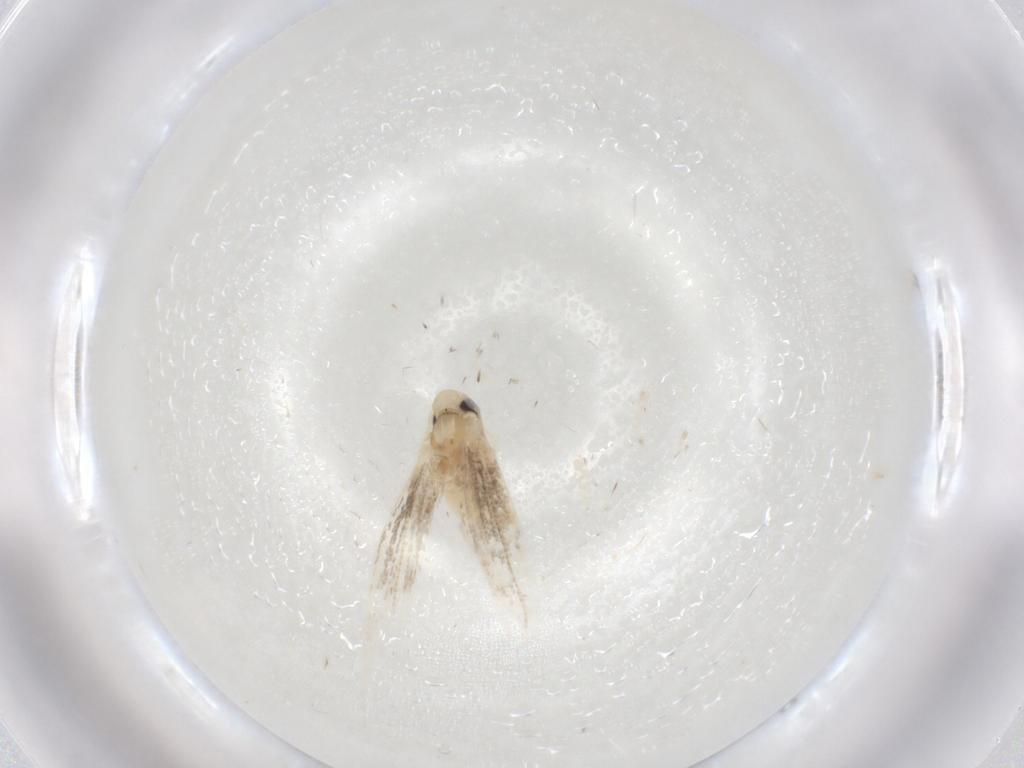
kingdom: Animalia
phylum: Arthropoda
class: Insecta
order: Lepidoptera
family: Gracillariidae
